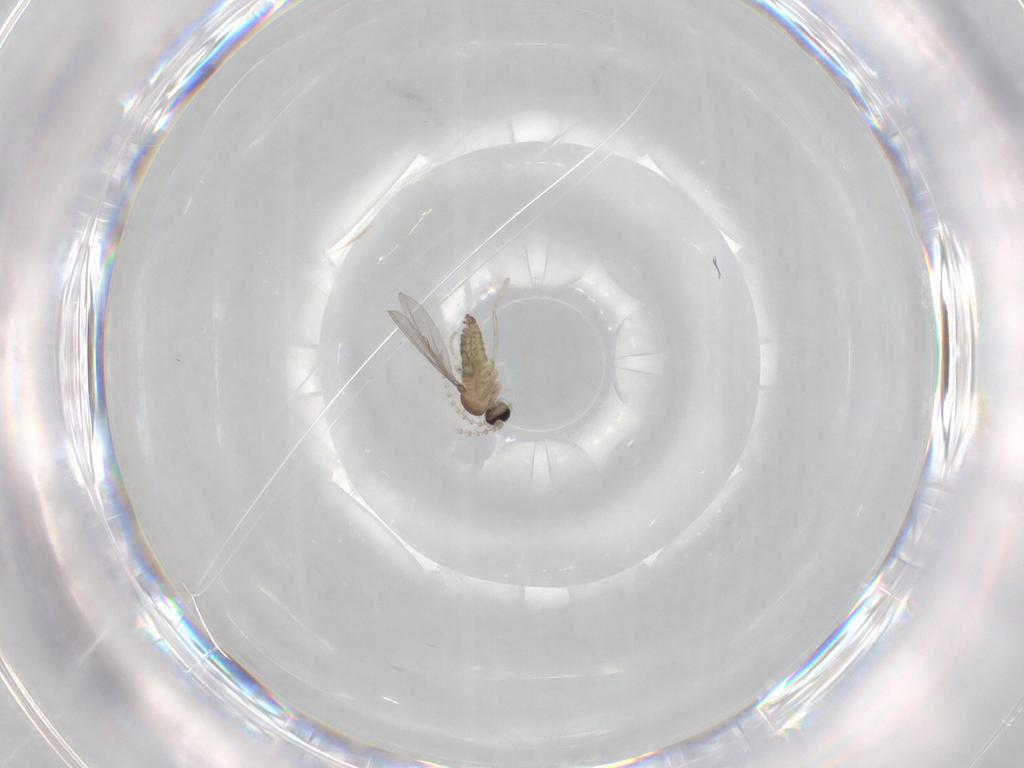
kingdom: Animalia
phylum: Arthropoda
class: Insecta
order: Diptera
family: Cecidomyiidae
